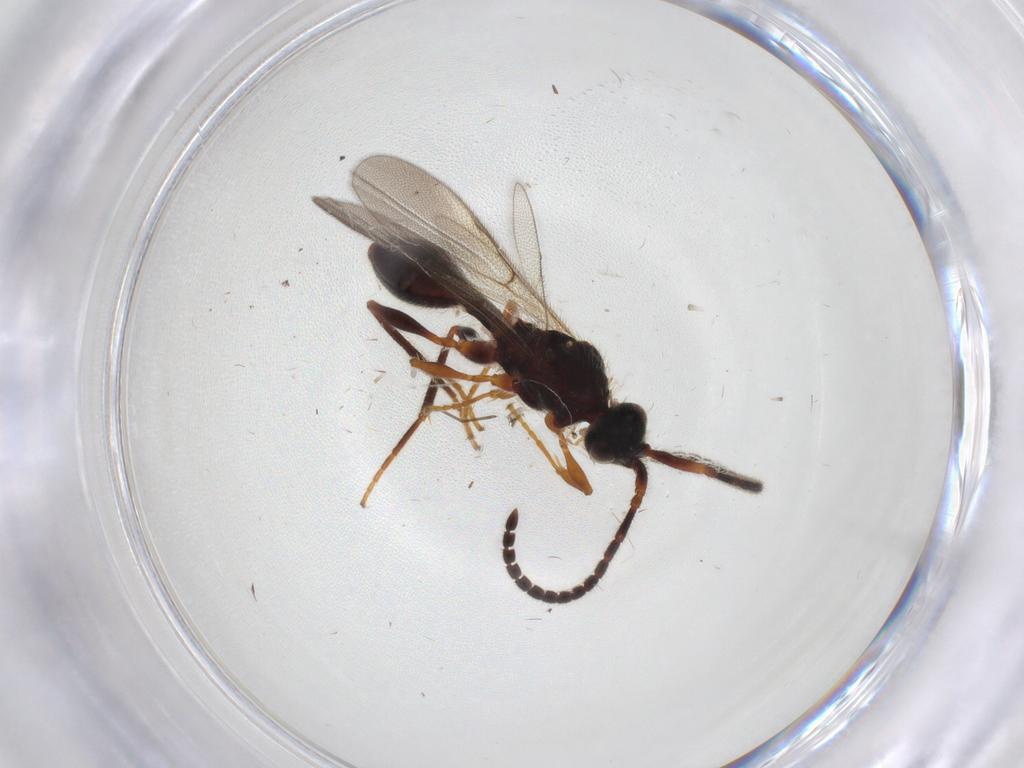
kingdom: Animalia
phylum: Arthropoda
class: Insecta
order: Hymenoptera
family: Diapriidae
